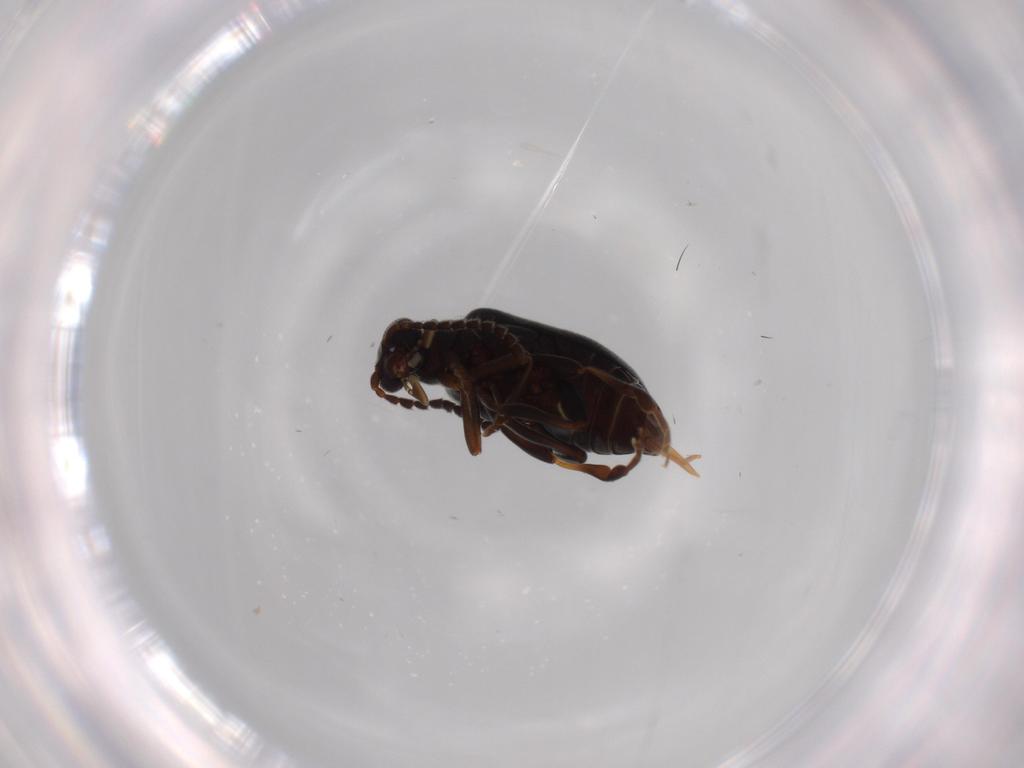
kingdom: Animalia
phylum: Arthropoda
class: Insecta
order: Coleoptera
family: Aderidae
